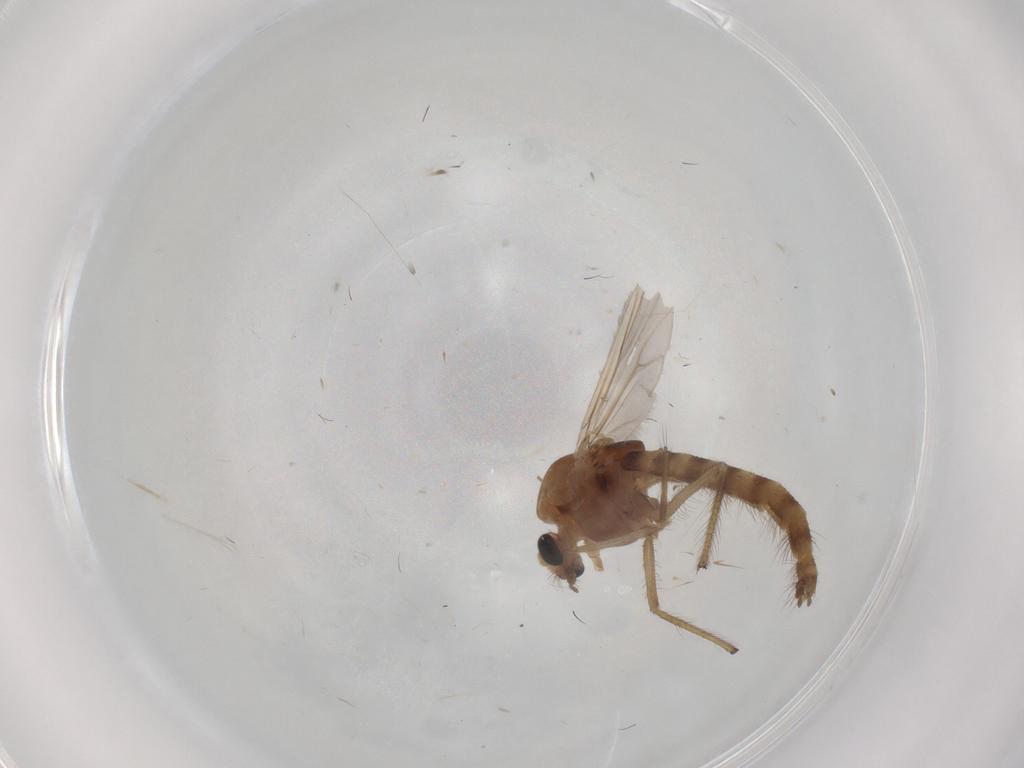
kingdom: Animalia
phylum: Arthropoda
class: Insecta
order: Diptera
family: Chironomidae
